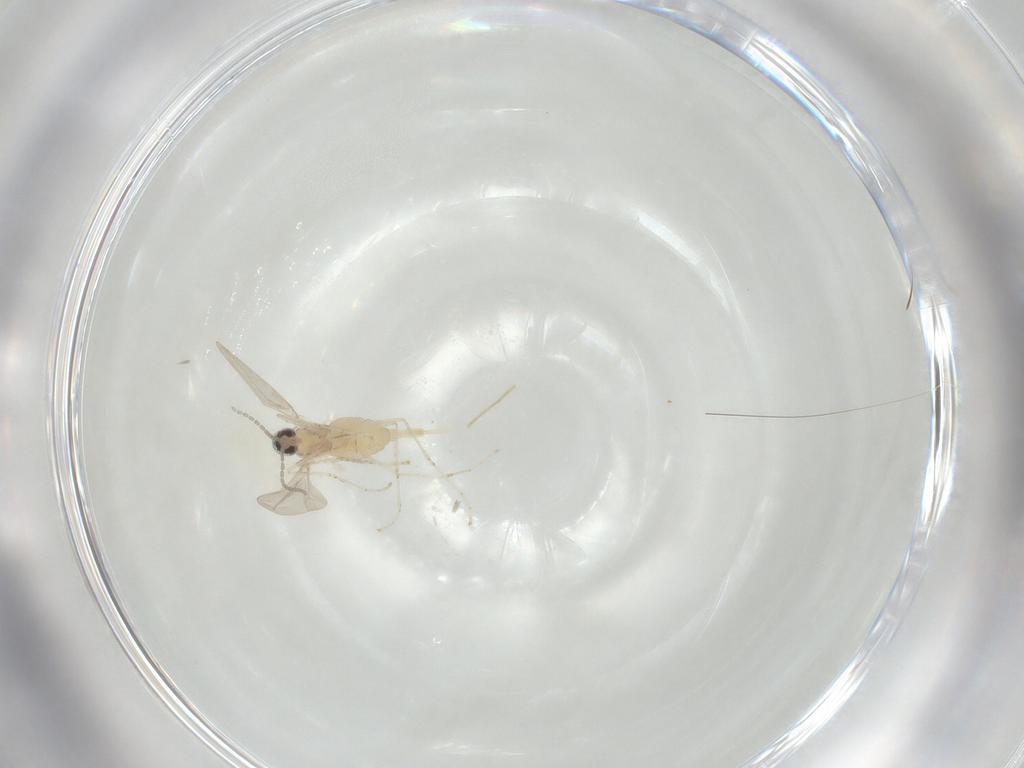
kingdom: Animalia
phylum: Arthropoda
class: Insecta
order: Diptera
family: Cecidomyiidae
